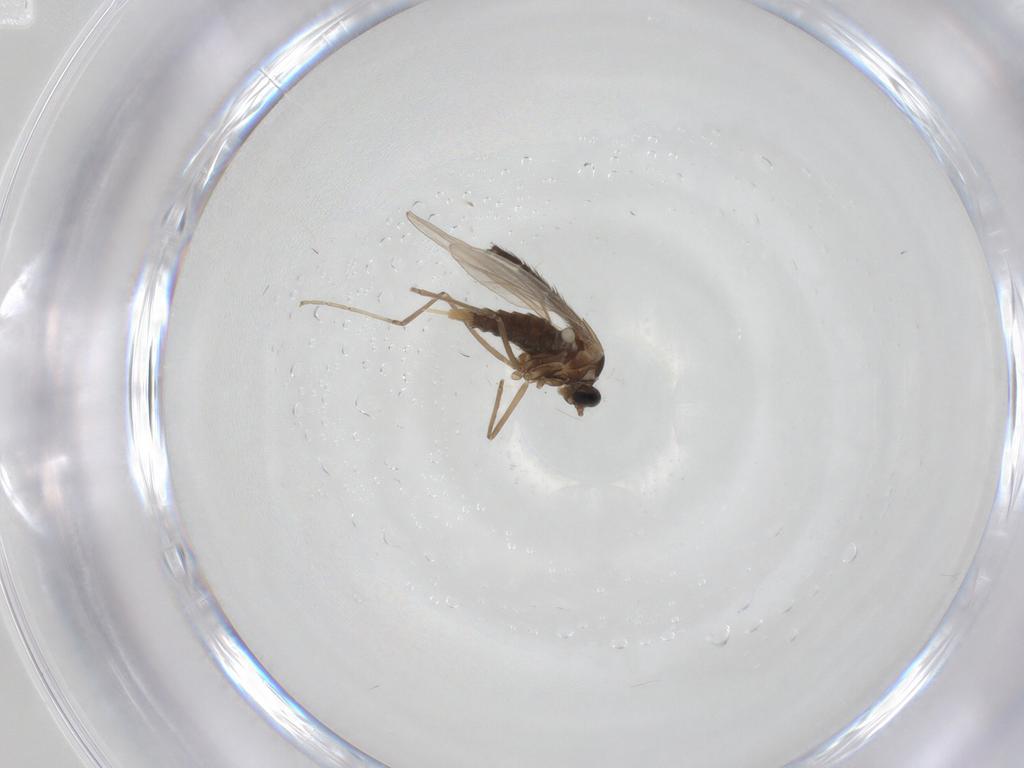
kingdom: Animalia
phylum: Arthropoda
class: Insecta
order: Diptera
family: Cecidomyiidae
